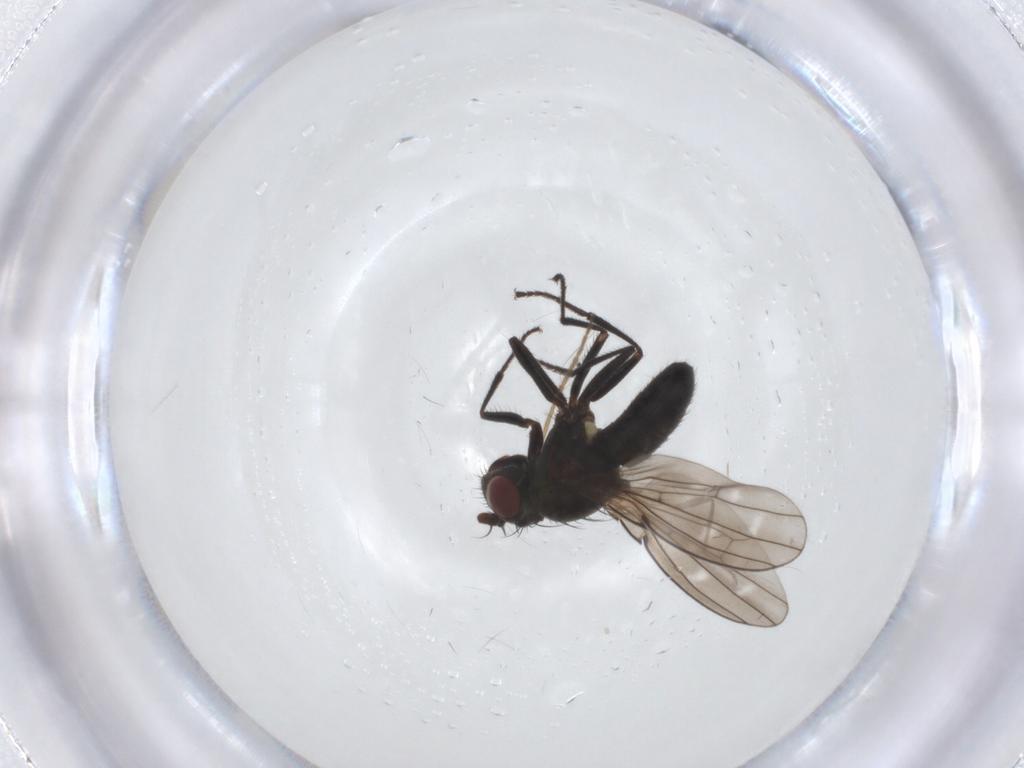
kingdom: Animalia
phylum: Arthropoda
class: Insecta
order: Diptera
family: Ephydridae
